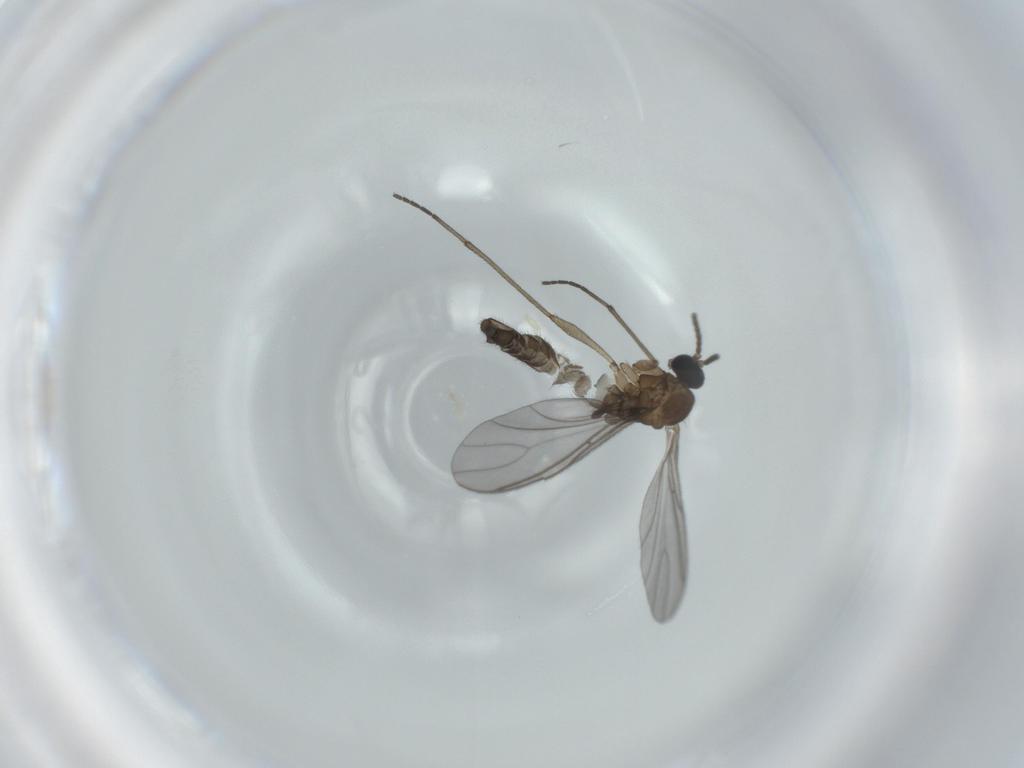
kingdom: Animalia
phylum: Arthropoda
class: Insecta
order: Diptera
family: Sciaridae
